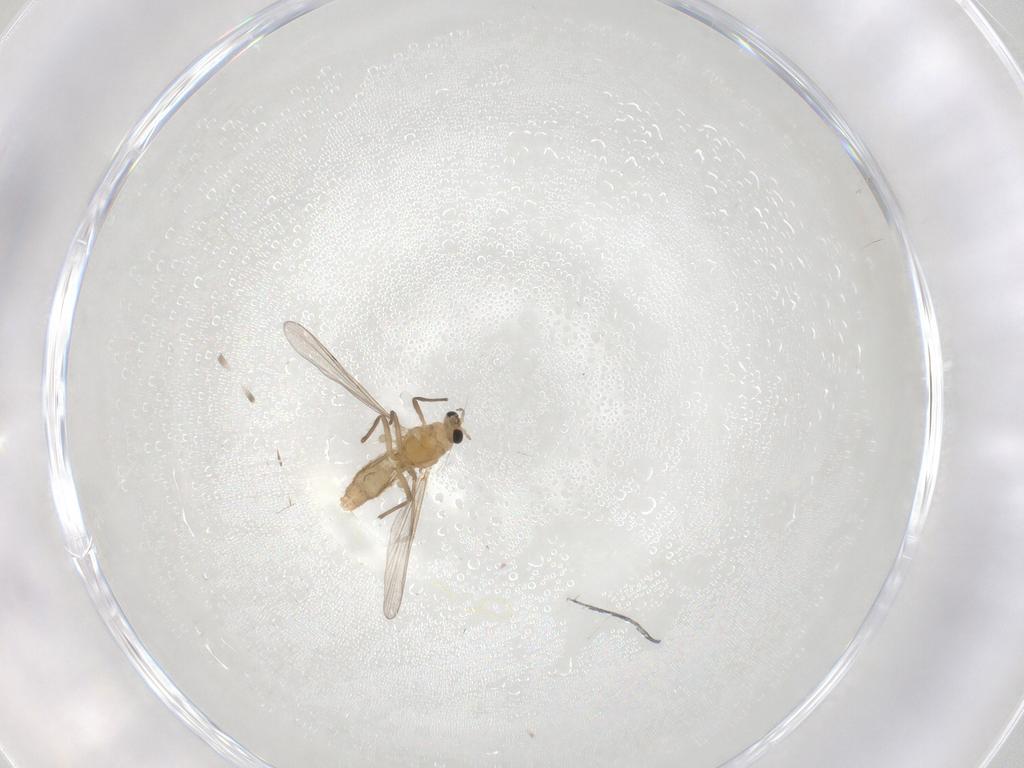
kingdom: Animalia
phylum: Arthropoda
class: Insecta
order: Diptera
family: Chironomidae
